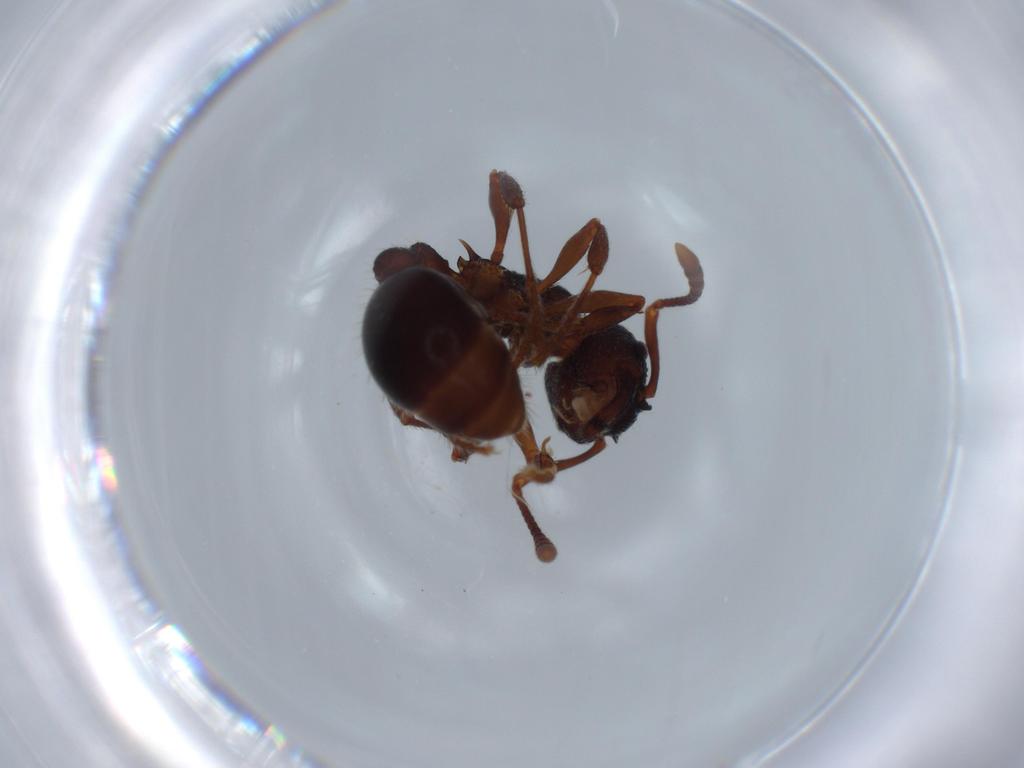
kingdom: Animalia
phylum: Arthropoda
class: Insecta
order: Hymenoptera
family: Formicidae
